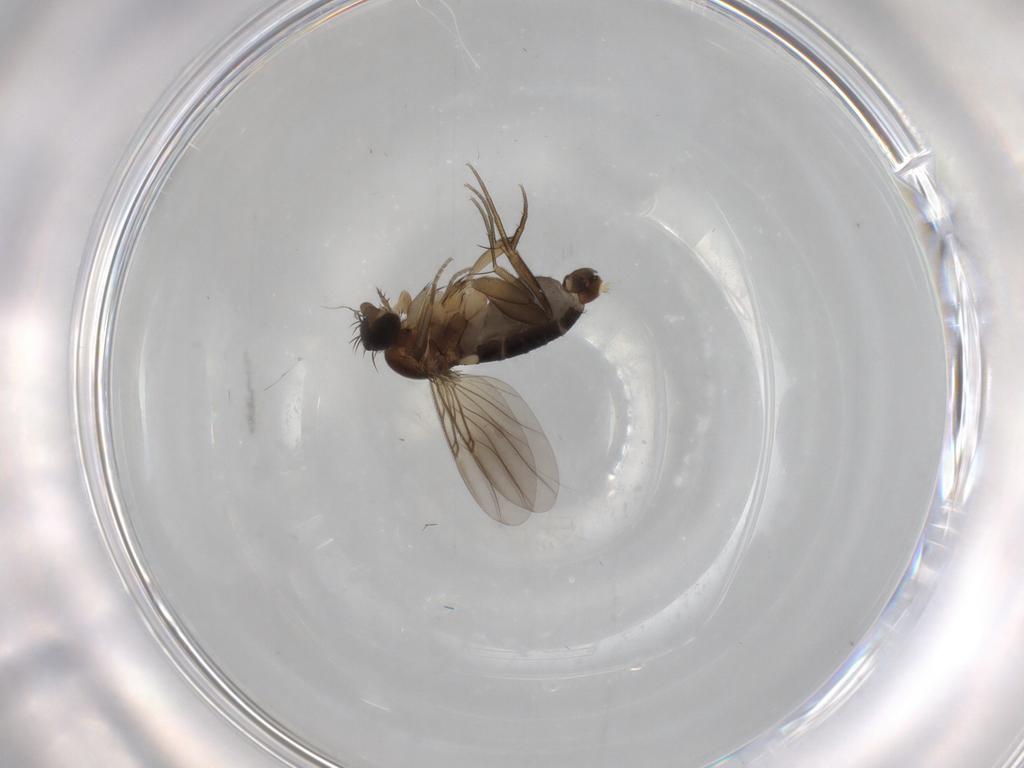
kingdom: Animalia
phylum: Arthropoda
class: Insecta
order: Diptera
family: Phoridae
